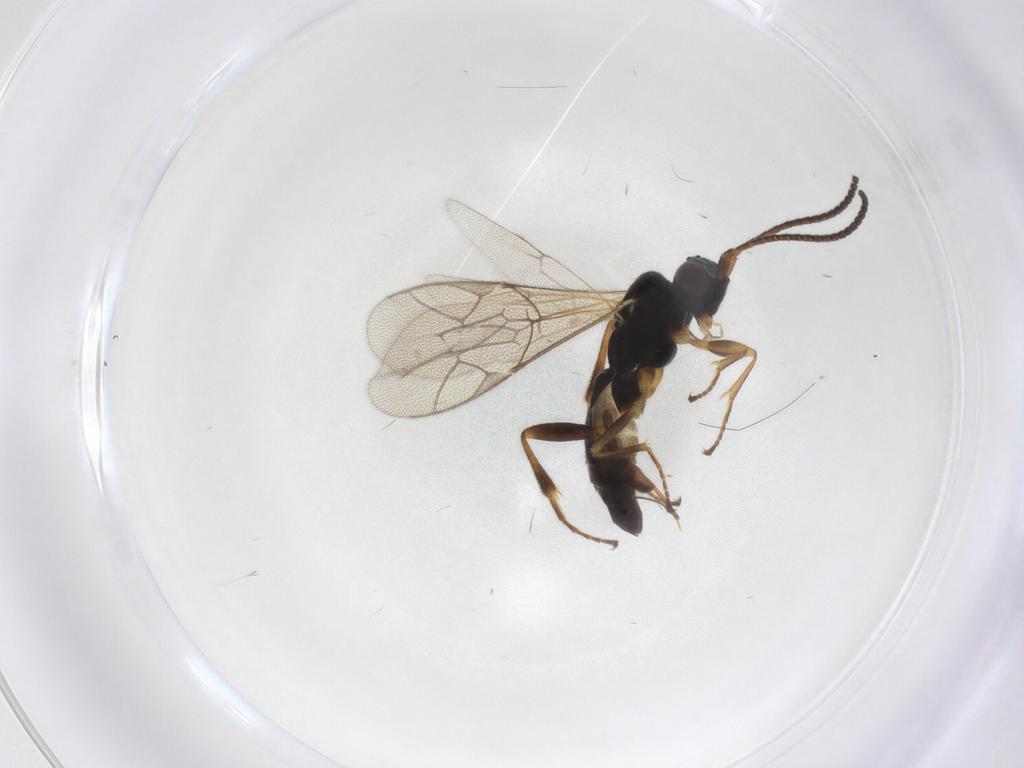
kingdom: Animalia
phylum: Arthropoda
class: Insecta
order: Hymenoptera
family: Ichneumonidae
